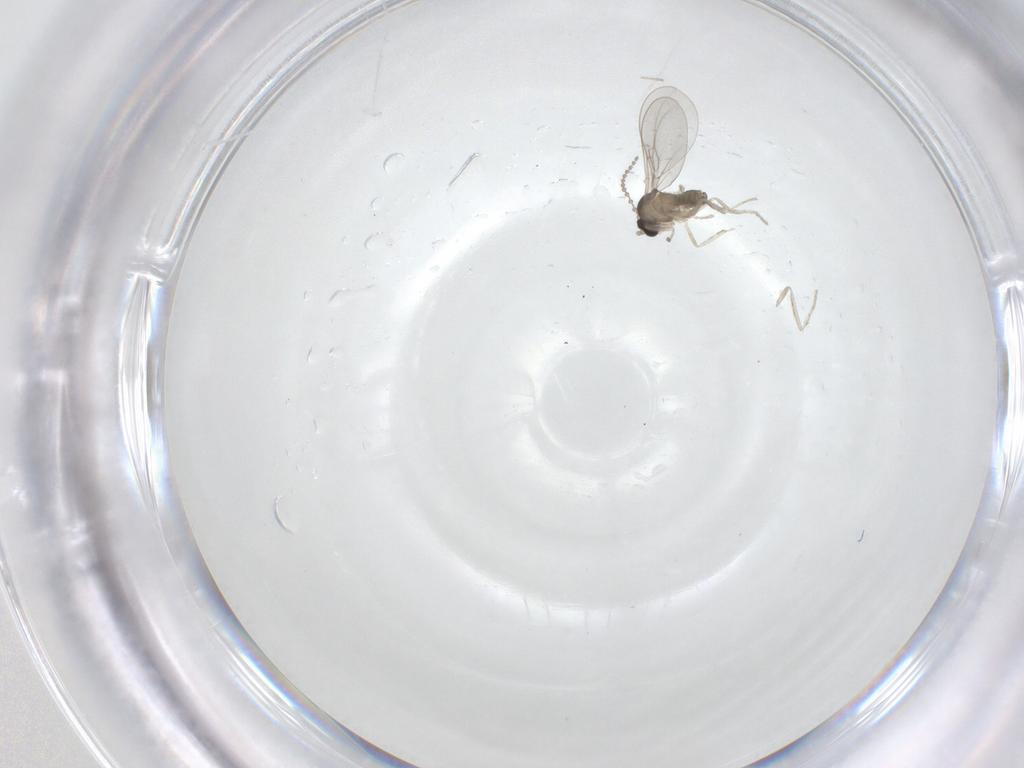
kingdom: Animalia
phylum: Arthropoda
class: Insecta
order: Diptera
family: Cecidomyiidae
